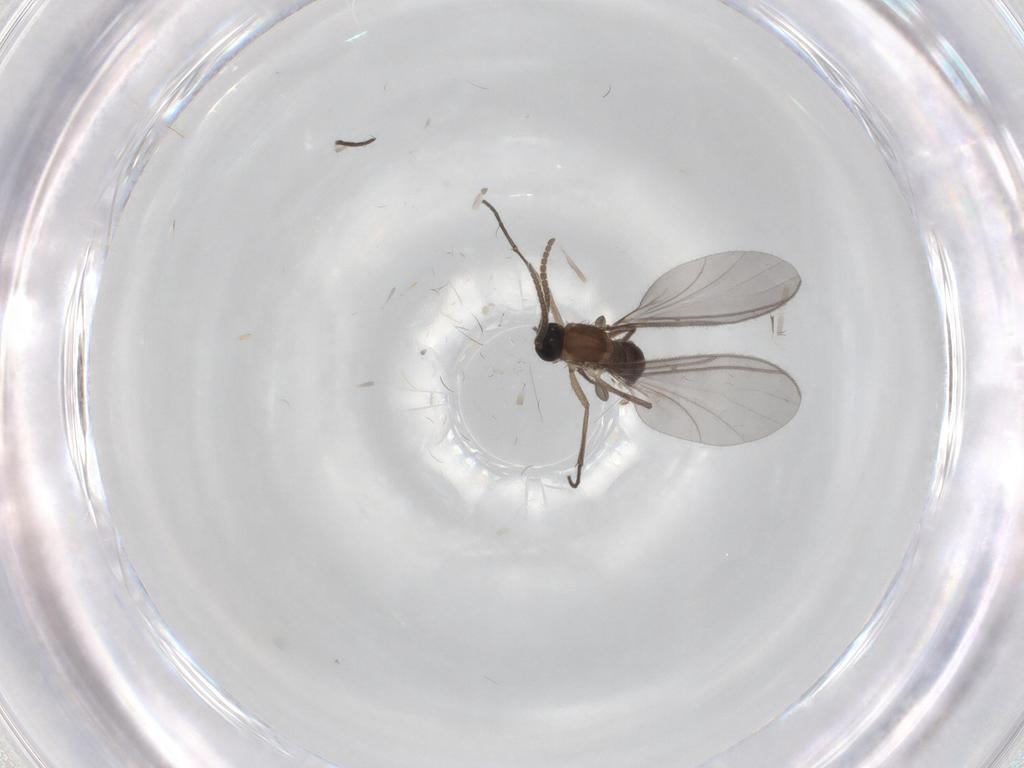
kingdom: Animalia
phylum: Arthropoda
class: Insecta
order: Diptera
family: Sciaridae
